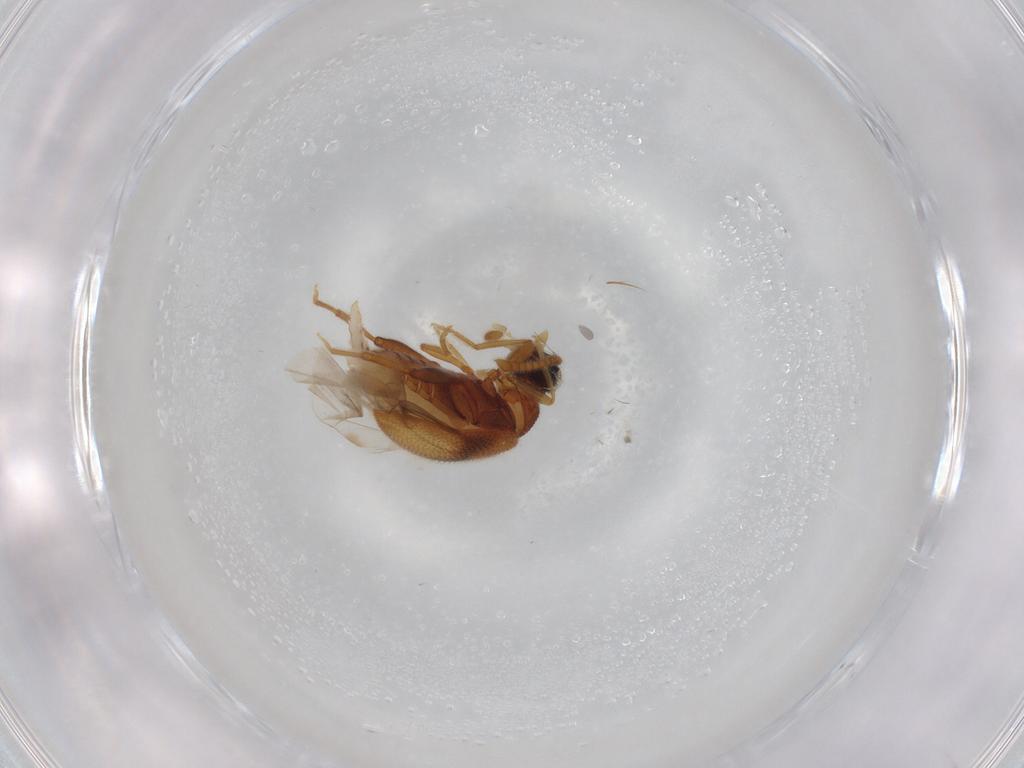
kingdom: Animalia
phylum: Arthropoda
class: Insecta
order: Coleoptera
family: Aderidae
